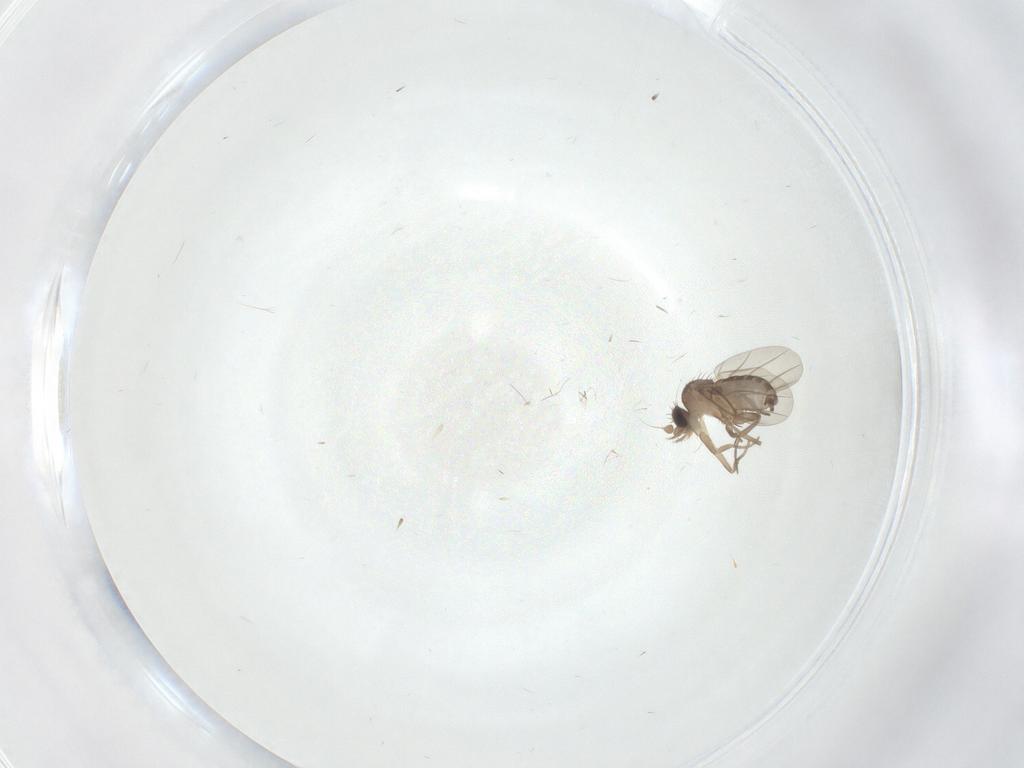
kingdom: Animalia
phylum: Arthropoda
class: Insecta
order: Diptera
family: Phoridae
